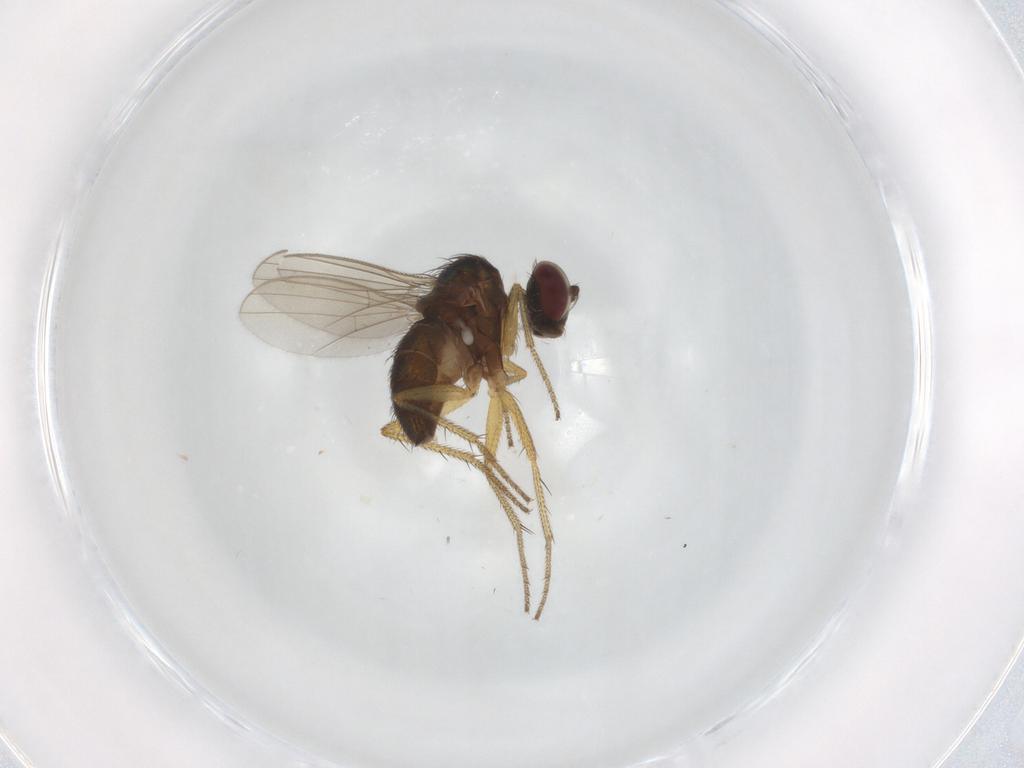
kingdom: Animalia
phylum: Arthropoda
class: Insecta
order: Diptera
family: Dolichopodidae
